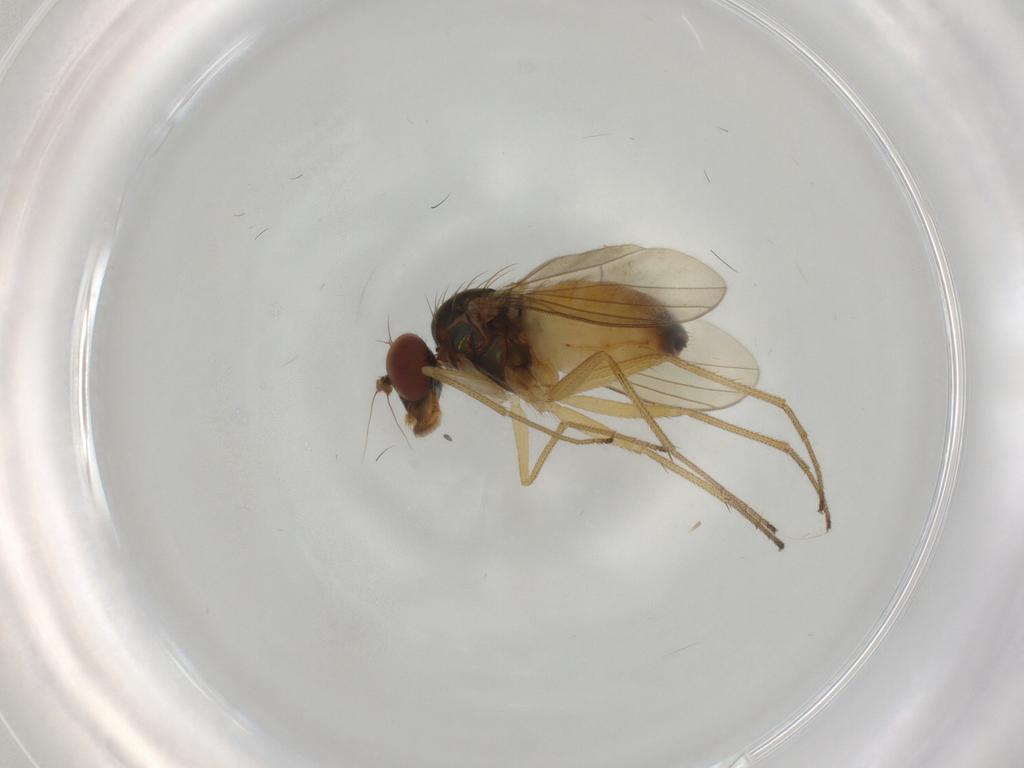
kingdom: Animalia
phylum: Arthropoda
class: Insecta
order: Diptera
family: Dolichopodidae
